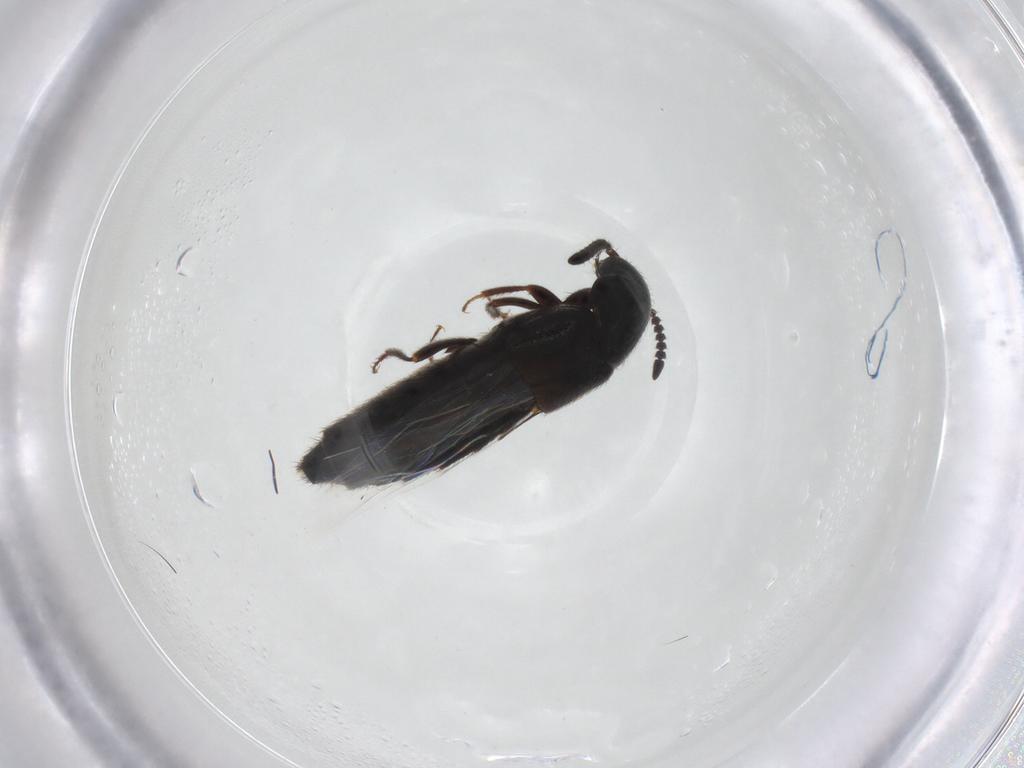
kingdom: Animalia
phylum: Arthropoda
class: Insecta
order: Coleoptera
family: Staphylinidae
